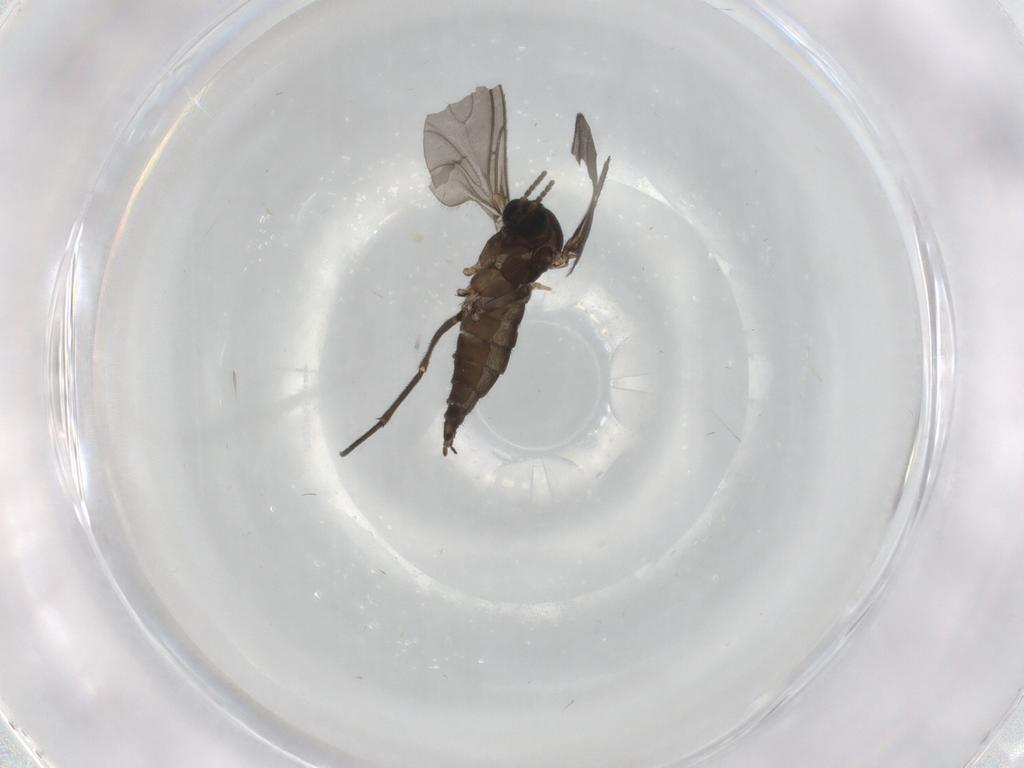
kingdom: Animalia
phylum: Arthropoda
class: Insecta
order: Diptera
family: Sciaridae
